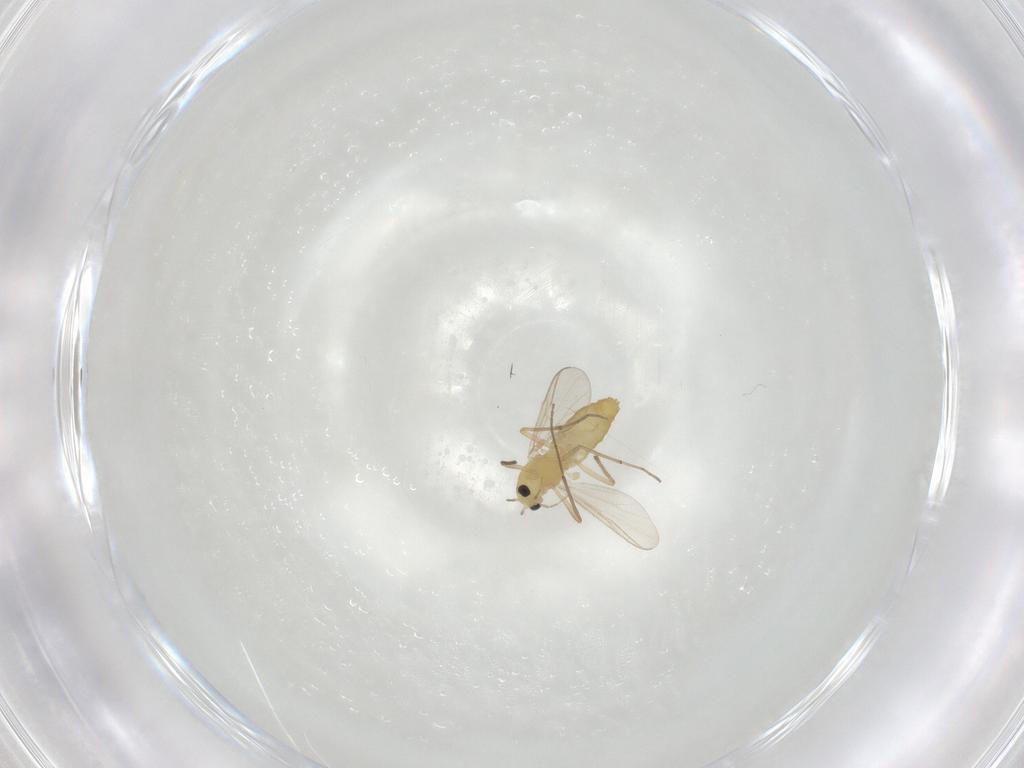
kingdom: Animalia
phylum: Arthropoda
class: Insecta
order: Diptera
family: Chironomidae
